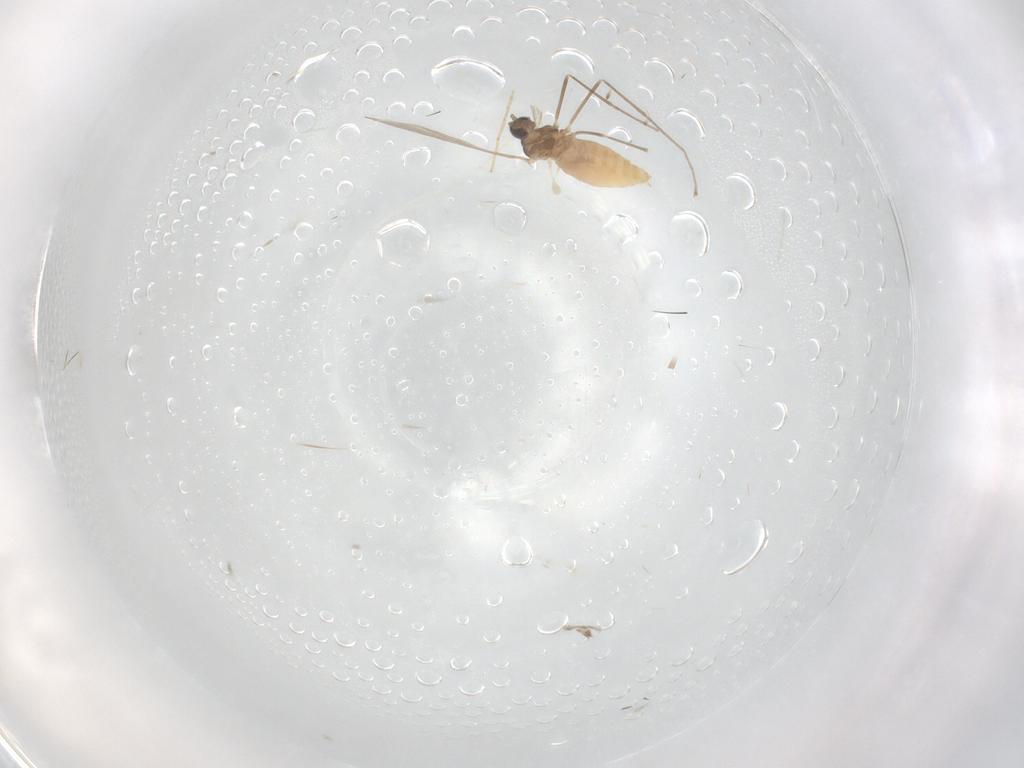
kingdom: Animalia
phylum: Arthropoda
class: Insecta
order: Diptera
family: Cecidomyiidae
